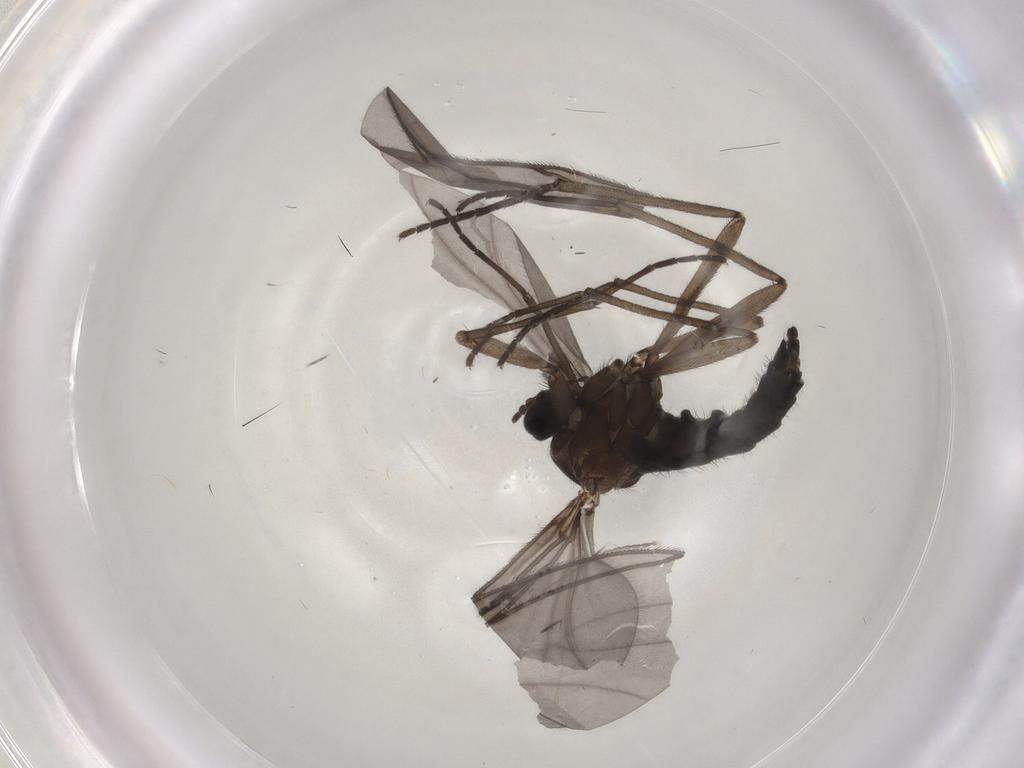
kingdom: Animalia
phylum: Arthropoda
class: Insecta
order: Diptera
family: Sciaridae
